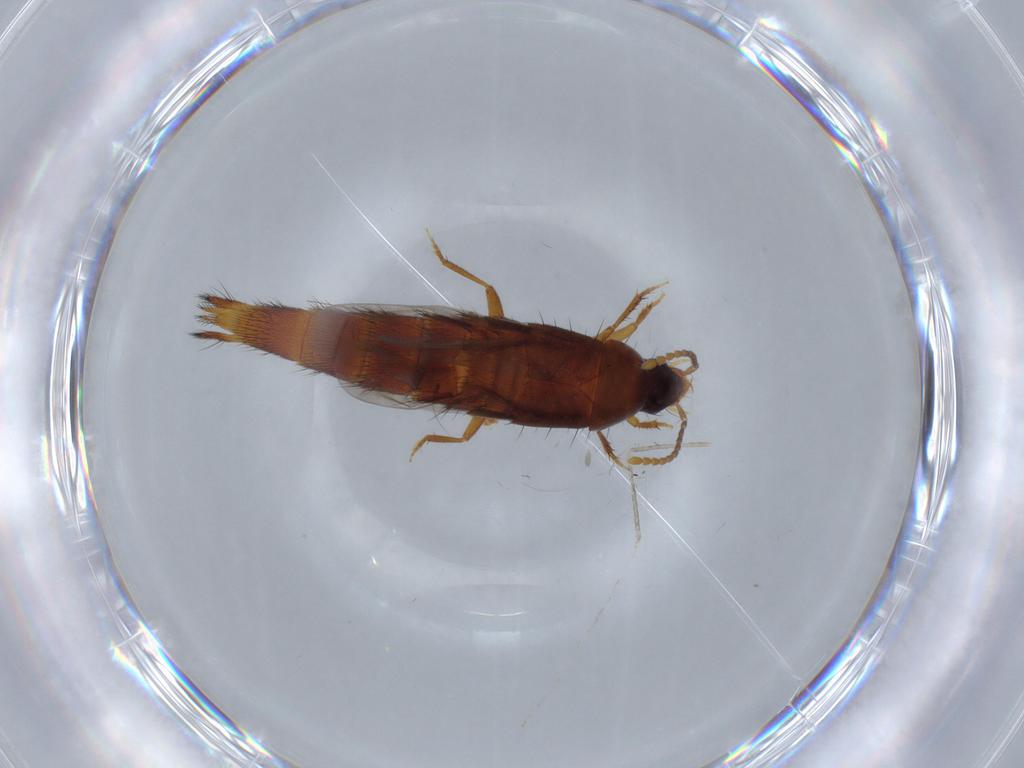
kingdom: Animalia
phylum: Arthropoda
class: Insecta
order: Coleoptera
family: Staphylinidae
